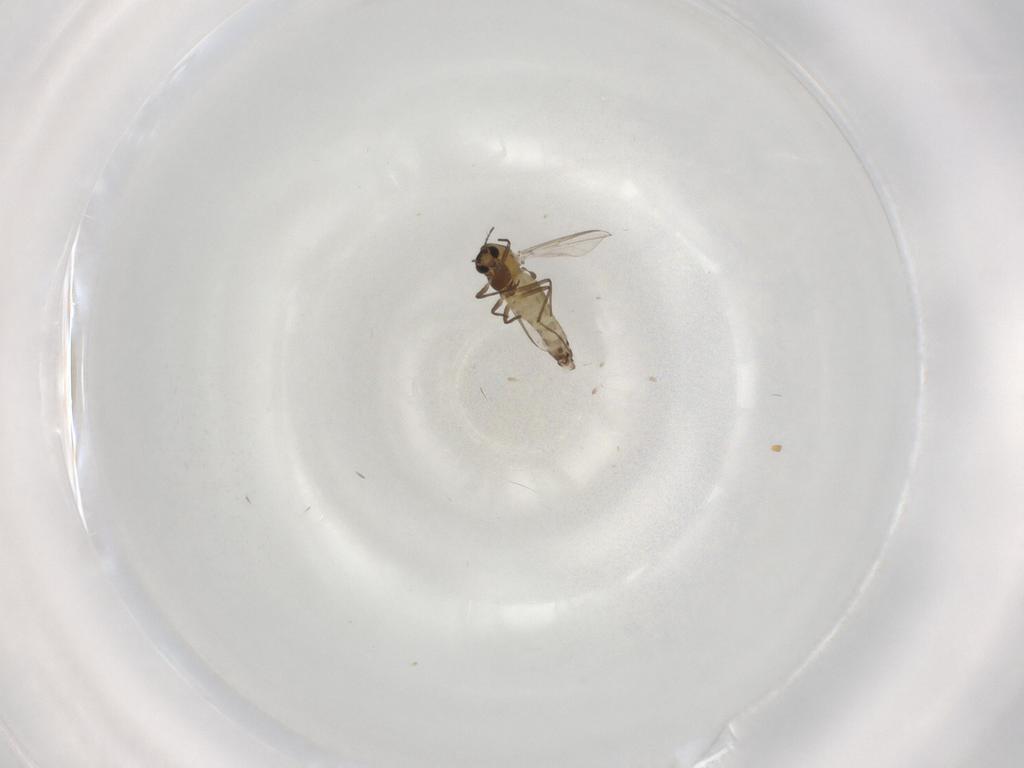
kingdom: Animalia
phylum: Arthropoda
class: Insecta
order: Diptera
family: Chironomidae
